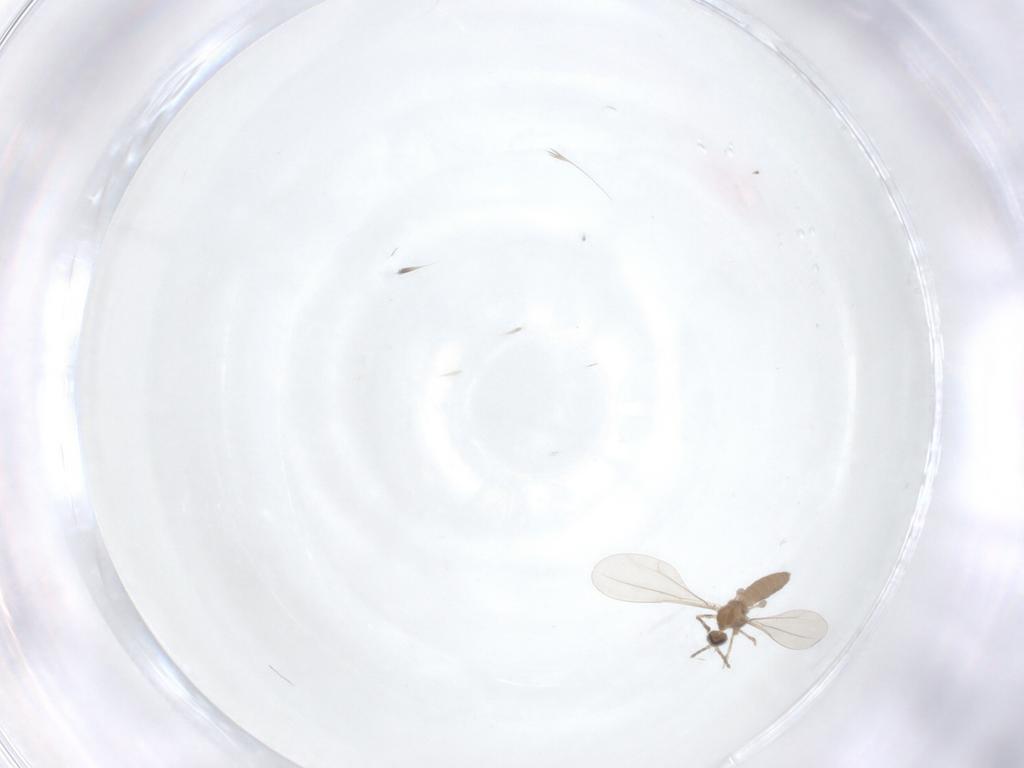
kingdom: Animalia
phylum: Arthropoda
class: Insecta
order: Diptera
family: Dolichopodidae
